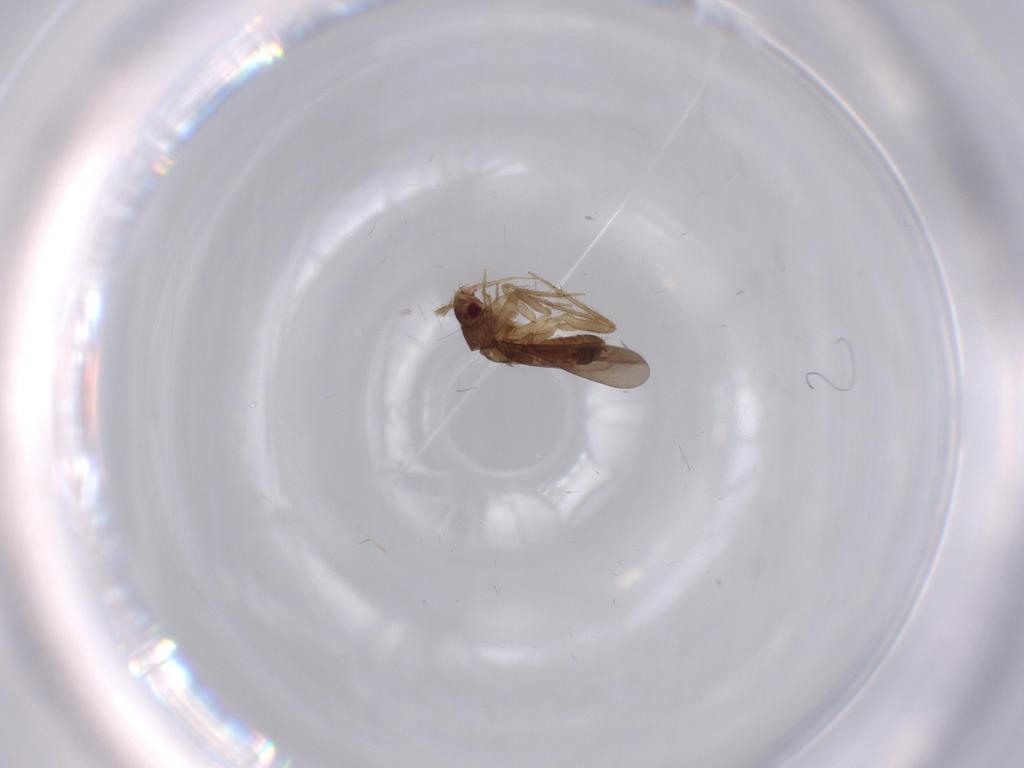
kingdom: Animalia
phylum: Arthropoda
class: Insecta
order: Hemiptera
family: Ceratocombidae
